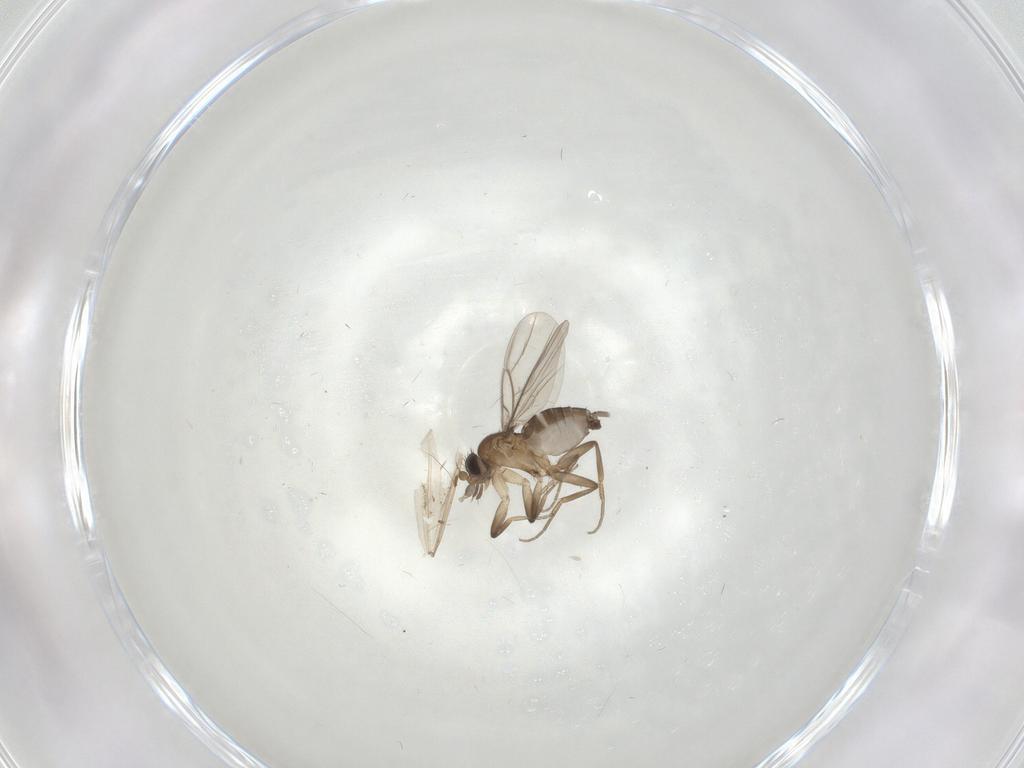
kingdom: Animalia
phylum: Arthropoda
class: Insecta
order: Diptera
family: Phoridae
